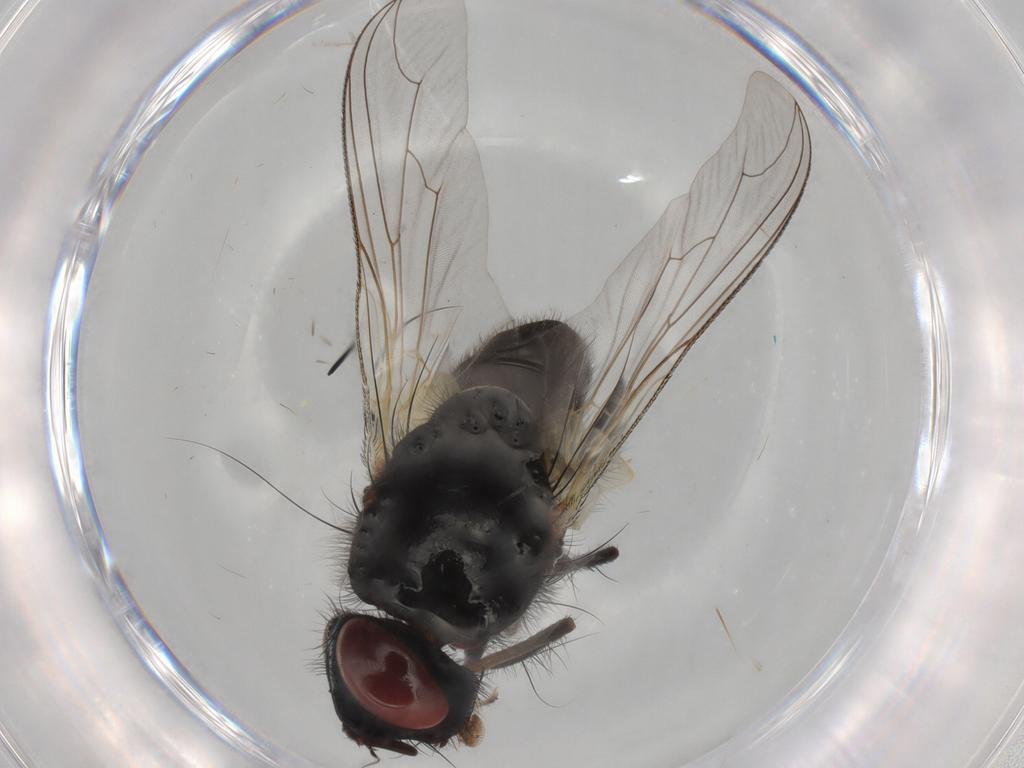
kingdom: Animalia
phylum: Arthropoda
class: Insecta
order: Diptera
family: Sarcophagidae
